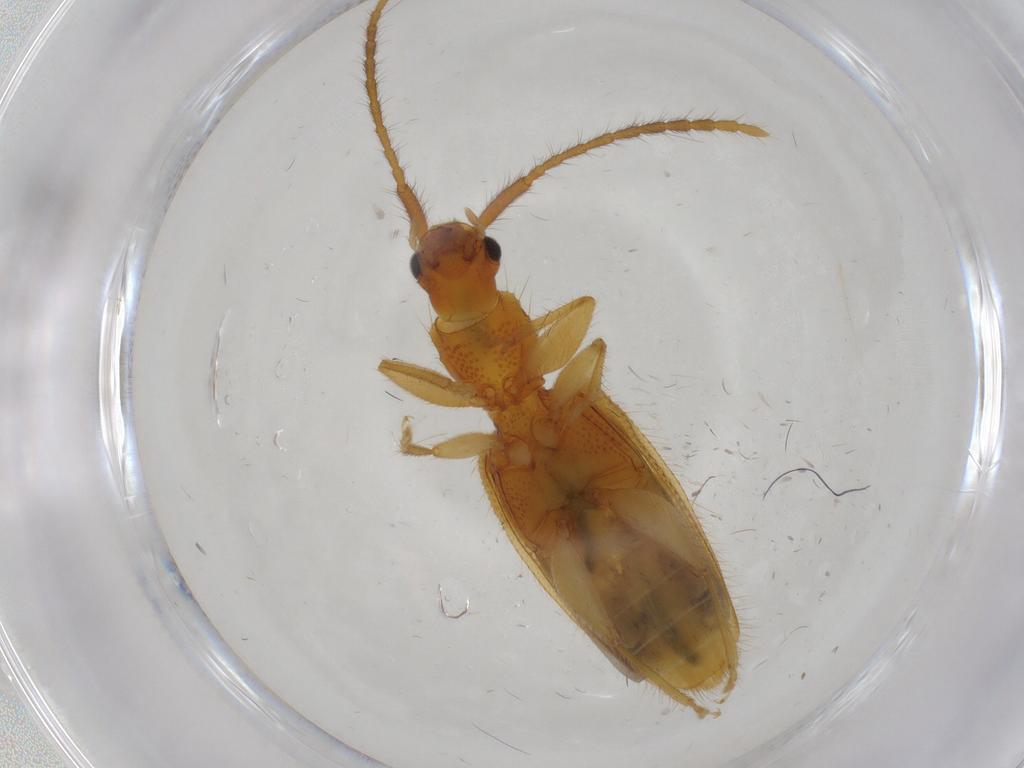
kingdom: Animalia
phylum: Arthropoda
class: Insecta
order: Coleoptera
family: Silvanidae
